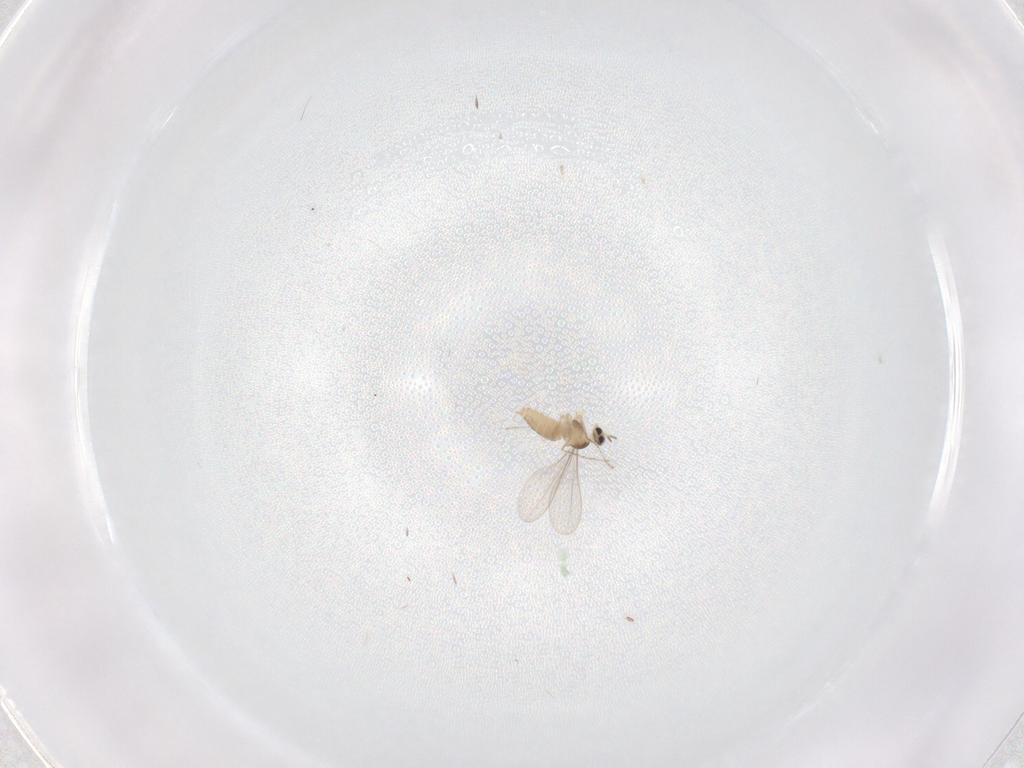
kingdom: Animalia
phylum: Arthropoda
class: Insecta
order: Diptera
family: Cecidomyiidae
